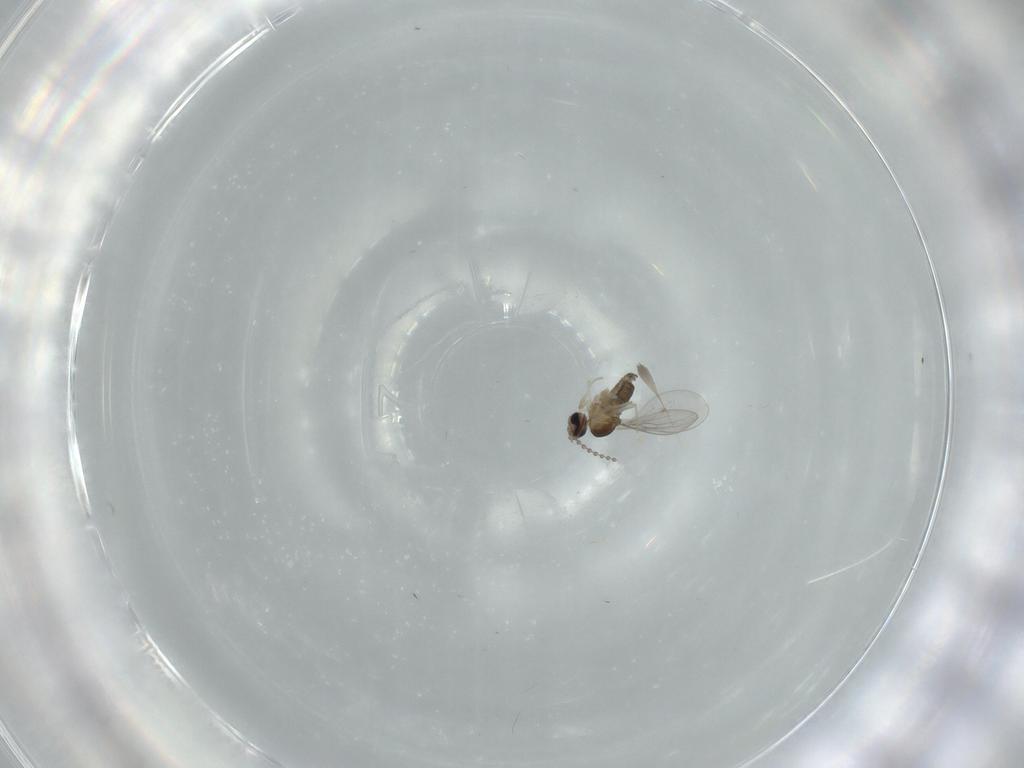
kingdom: Animalia
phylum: Arthropoda
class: Insecta
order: Diptera
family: Cecidomyiidae
